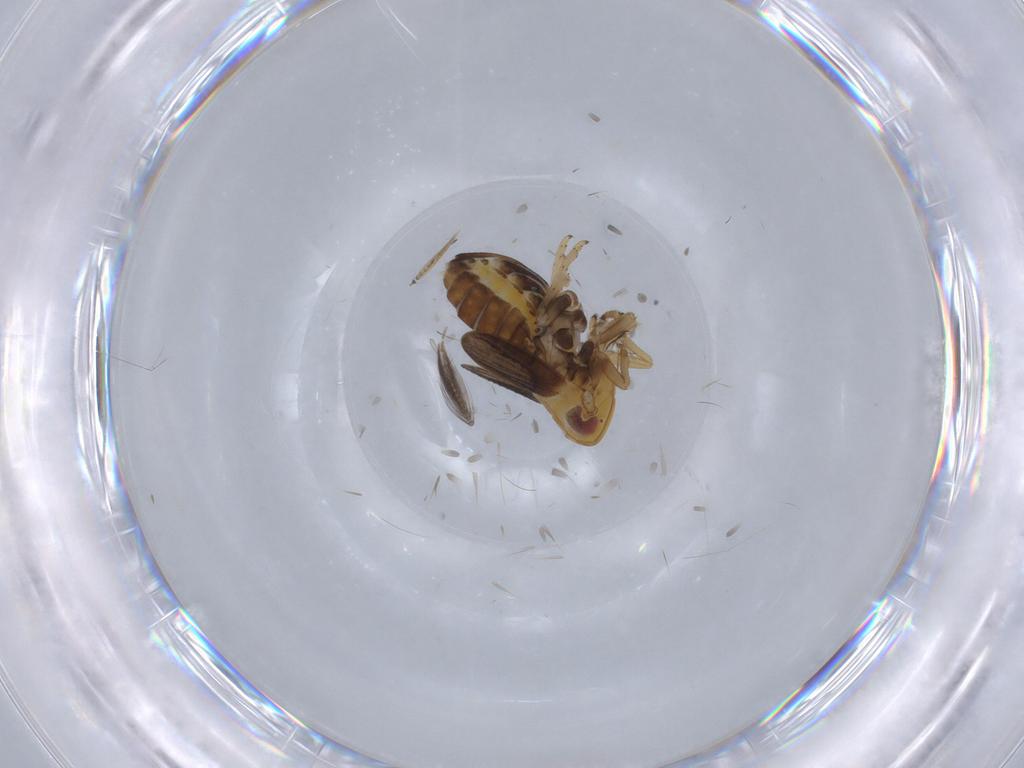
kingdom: Animalia
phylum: Arthropoda
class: Insecta
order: Hemiptera
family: Delphacidae
